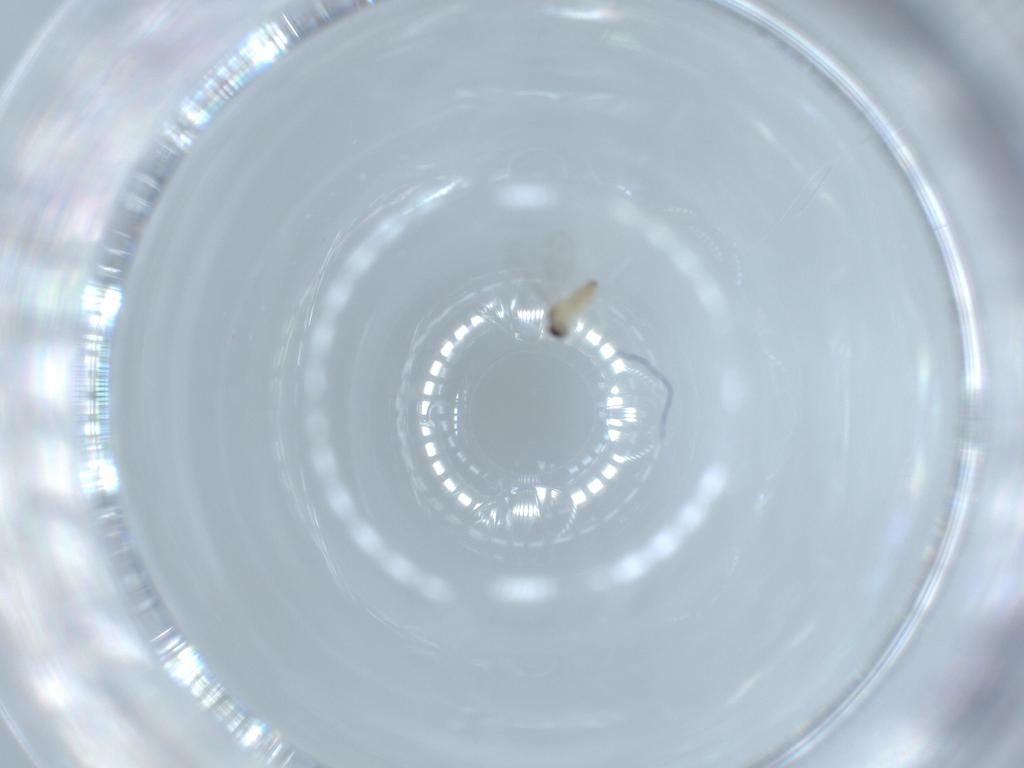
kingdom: Animalia
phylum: Arthropoda
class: Insecta
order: Diptera
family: Cecidomyiidae
